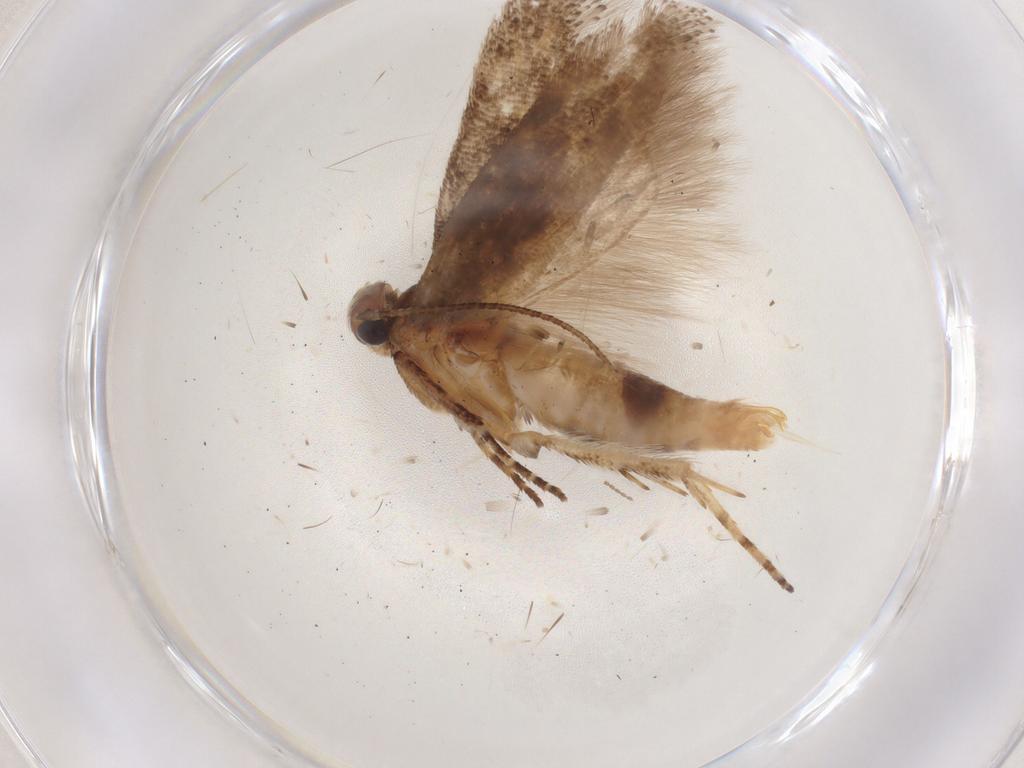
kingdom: Animalia
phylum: Arthropoda
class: Insecta
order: Lepidoptera
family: Gelechiidae
